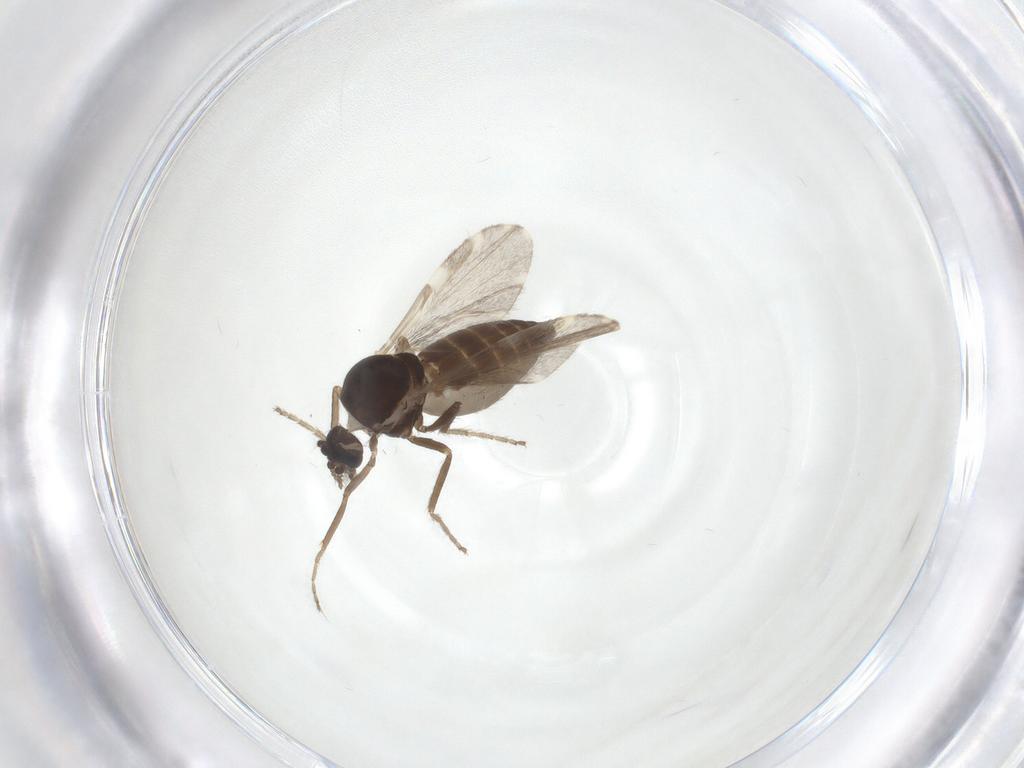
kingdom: Animalia
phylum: Arthropoda
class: Insecta
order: Diptera
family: Ceratopogonidae
